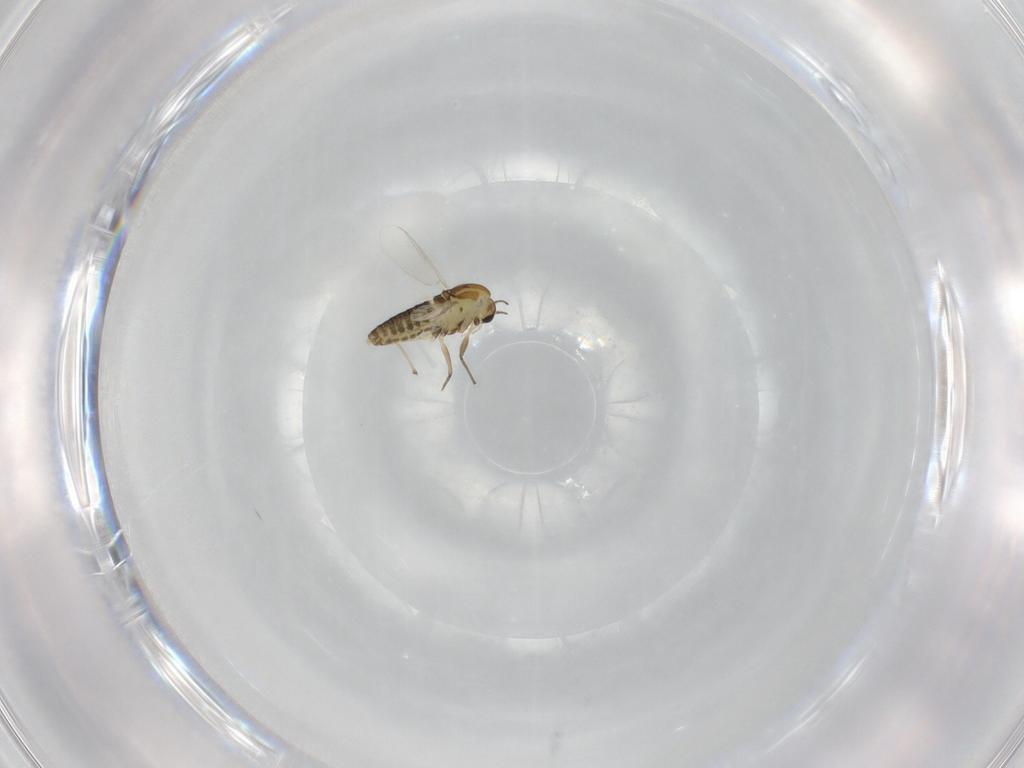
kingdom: Animalia
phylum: Arthropoda
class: Insecta
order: Diptera
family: Chironomidae
